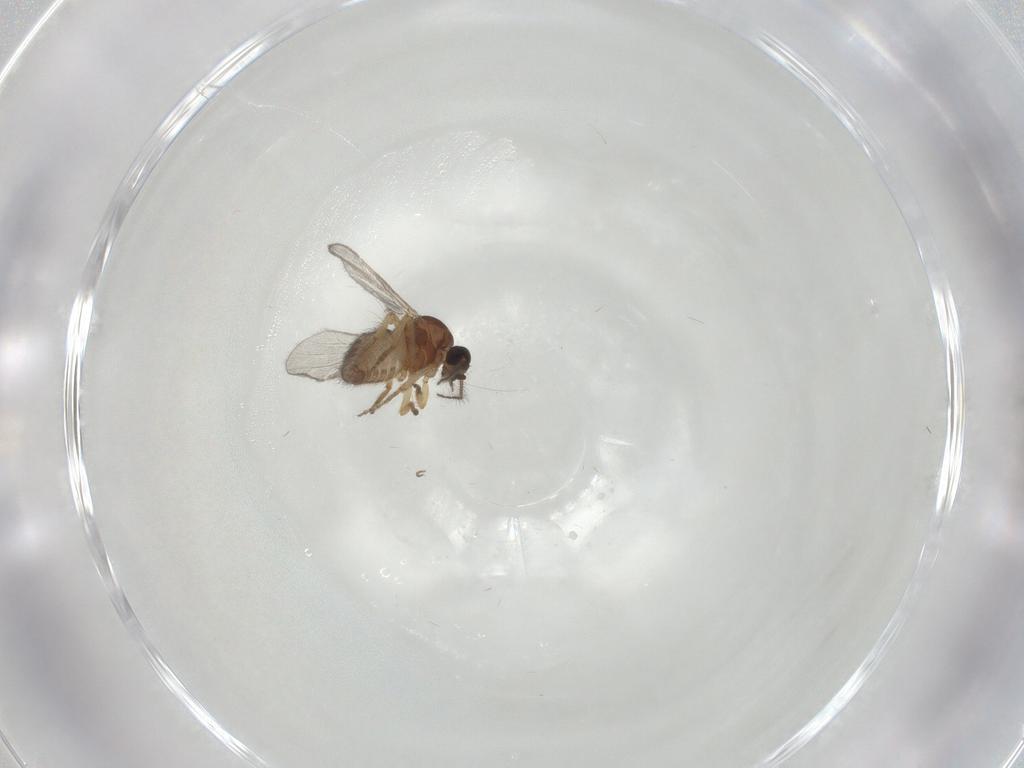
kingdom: Animalia
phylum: Arthropoda
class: Insecta
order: Diptera
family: Ceratopogonidae
